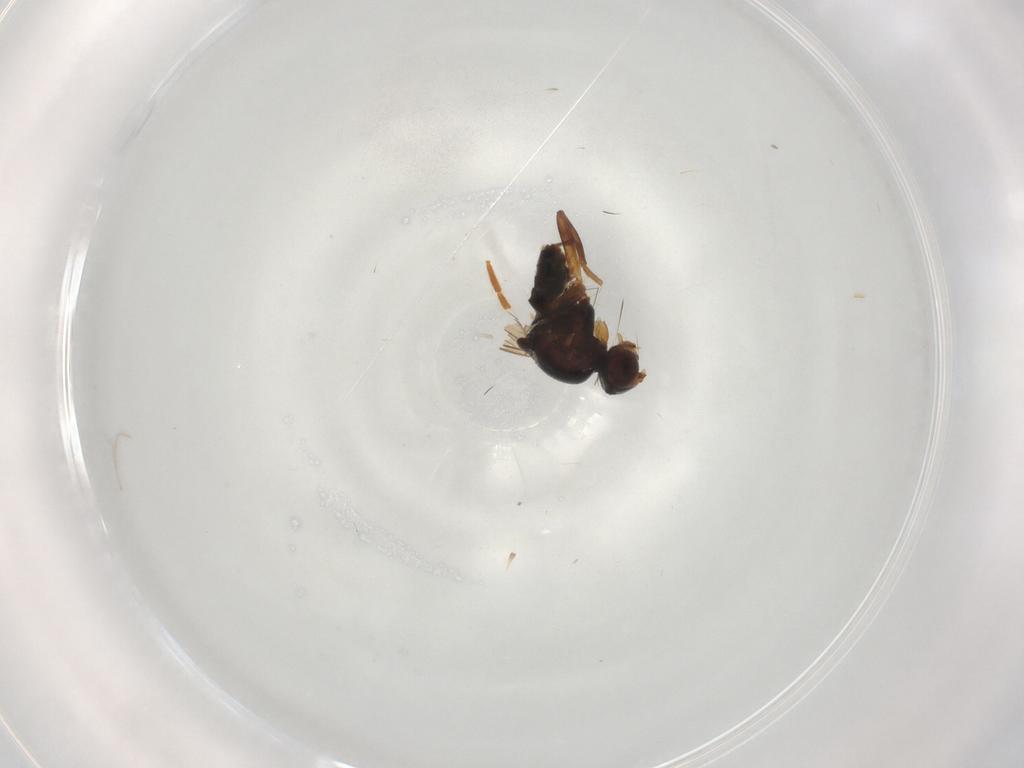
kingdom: Animalia
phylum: Arthropoda
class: Insecta
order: Diptera
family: Chloropidae
